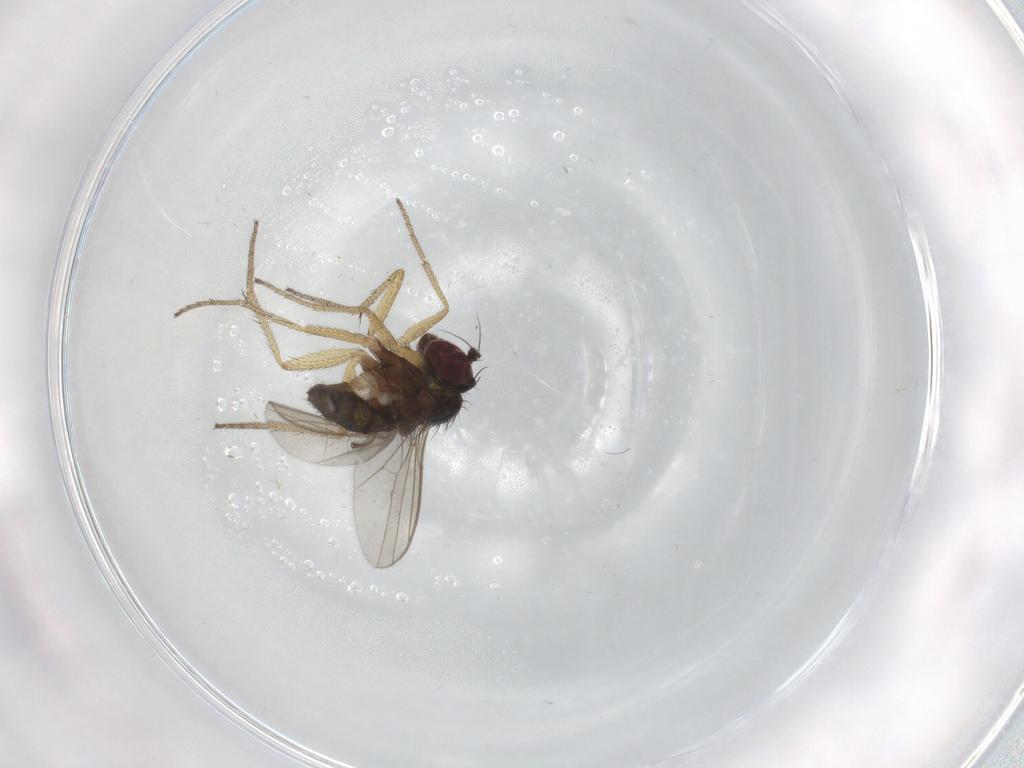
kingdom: Animalia
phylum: Arthropoda
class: Insecta
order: Diptera
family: Ceratopogonidae
